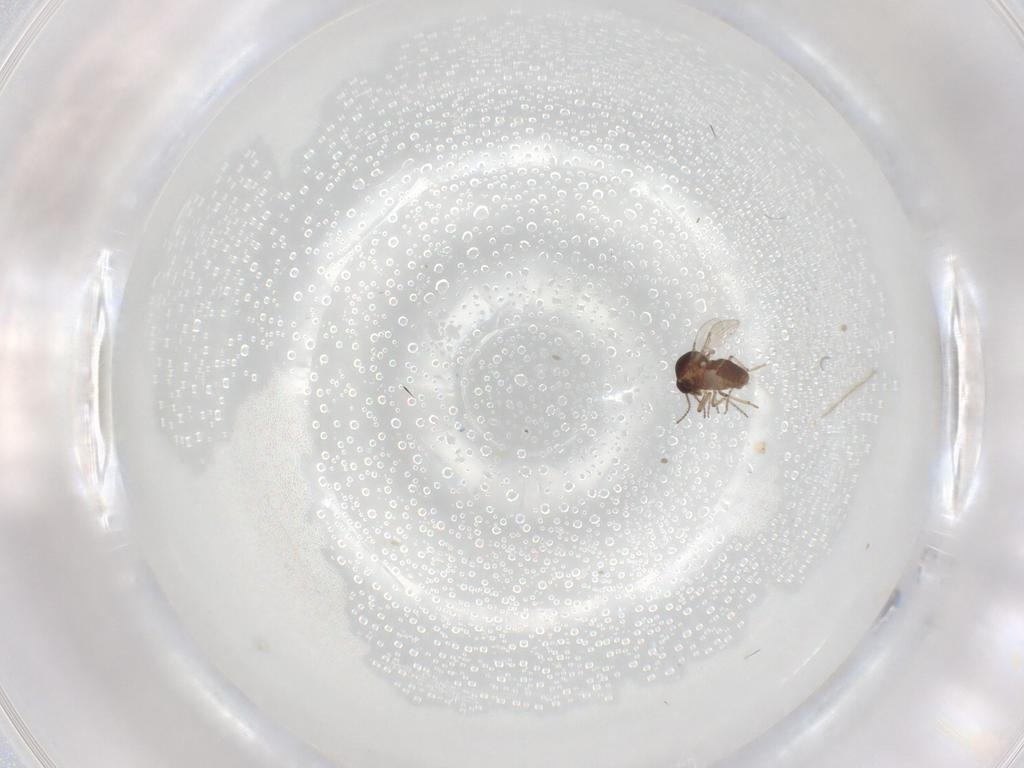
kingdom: Animalia
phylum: Arthropoda
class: Insecta
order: Diptera
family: Ceratopogonidae
